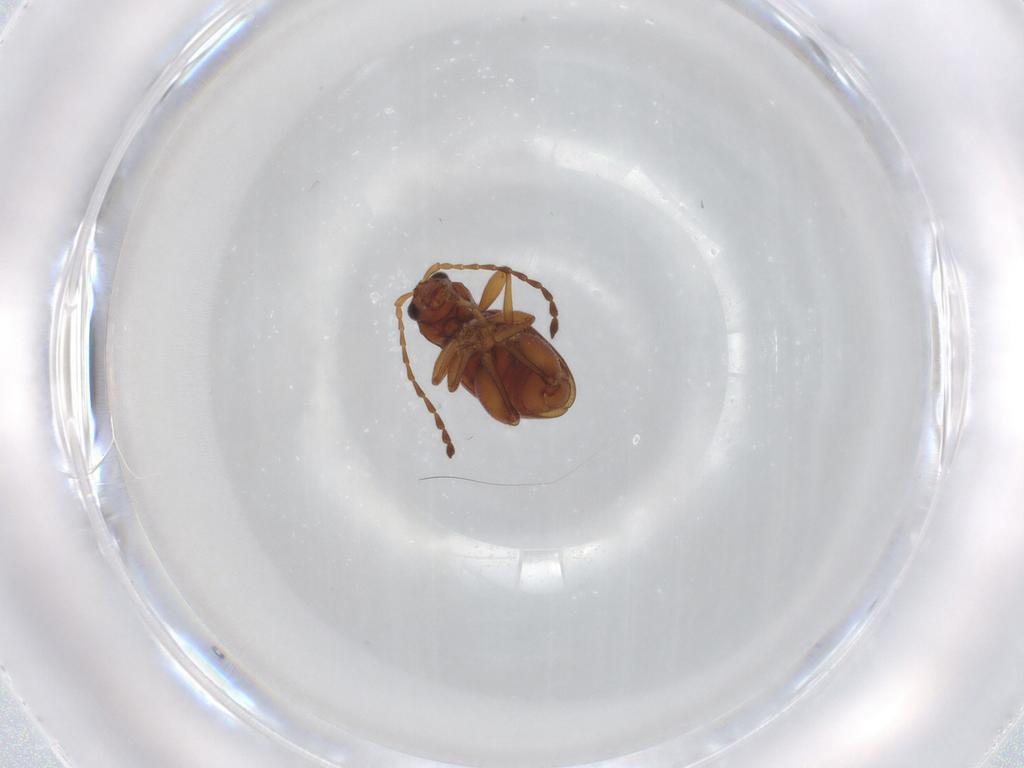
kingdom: Animalia
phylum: Arthropoda
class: Insecta
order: Coleoptera
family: Chrysomelidae
